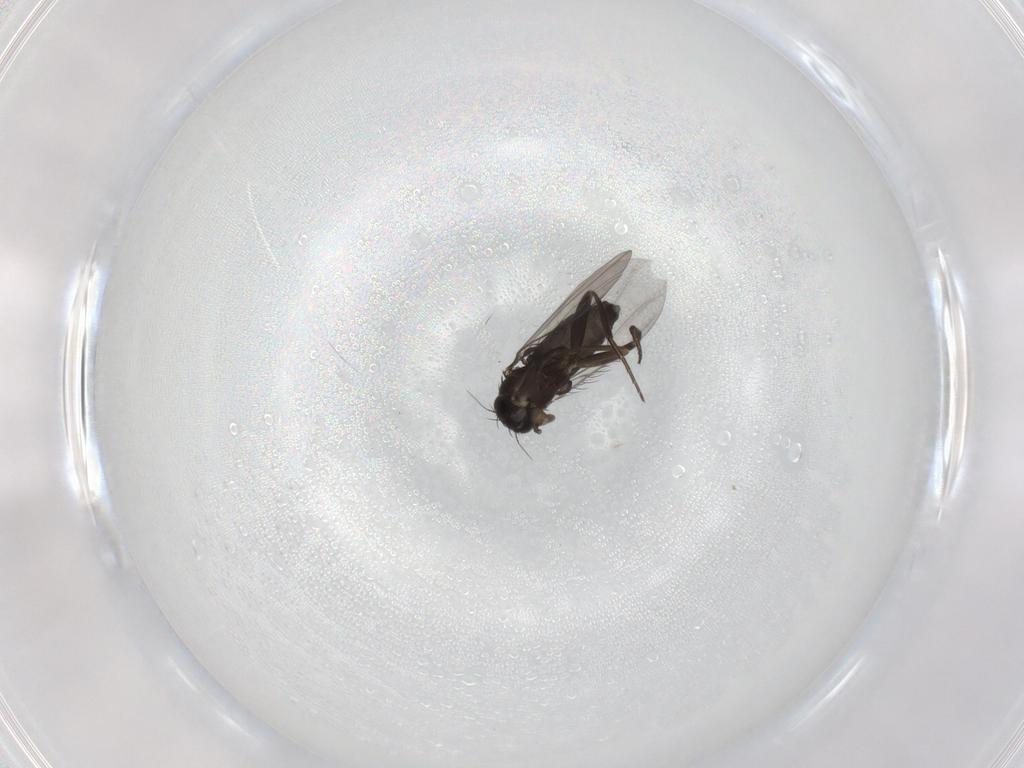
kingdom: Animalia
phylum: Arthropoda
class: Insecta
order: Diptera
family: Phoridae
